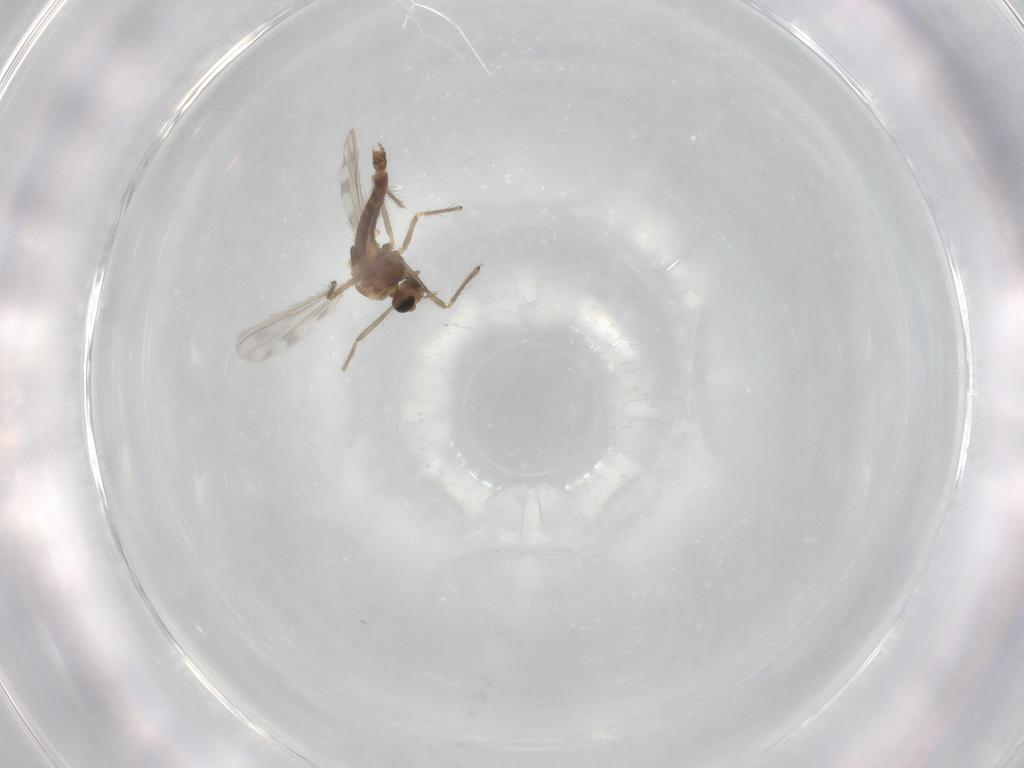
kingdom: Animalia
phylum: Arthropoda
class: Insecta
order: Diptera
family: Chironomidae
